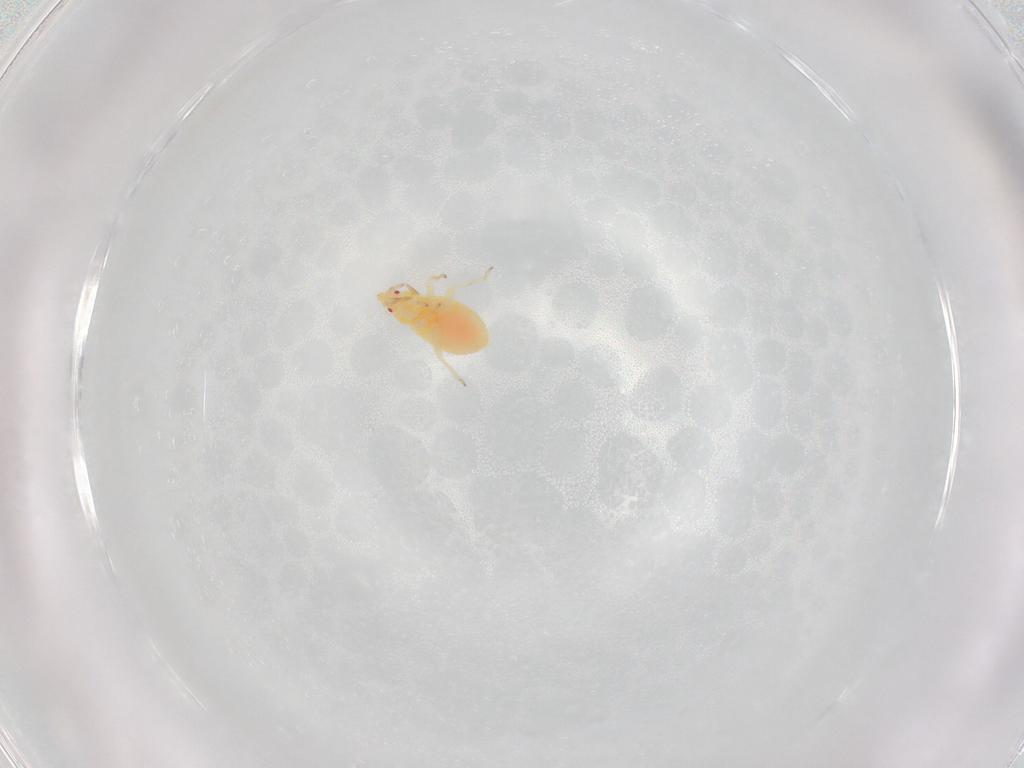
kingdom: Animalia
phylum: Arthropoda
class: Insecta
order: Hemiptera
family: Anthocoridae
